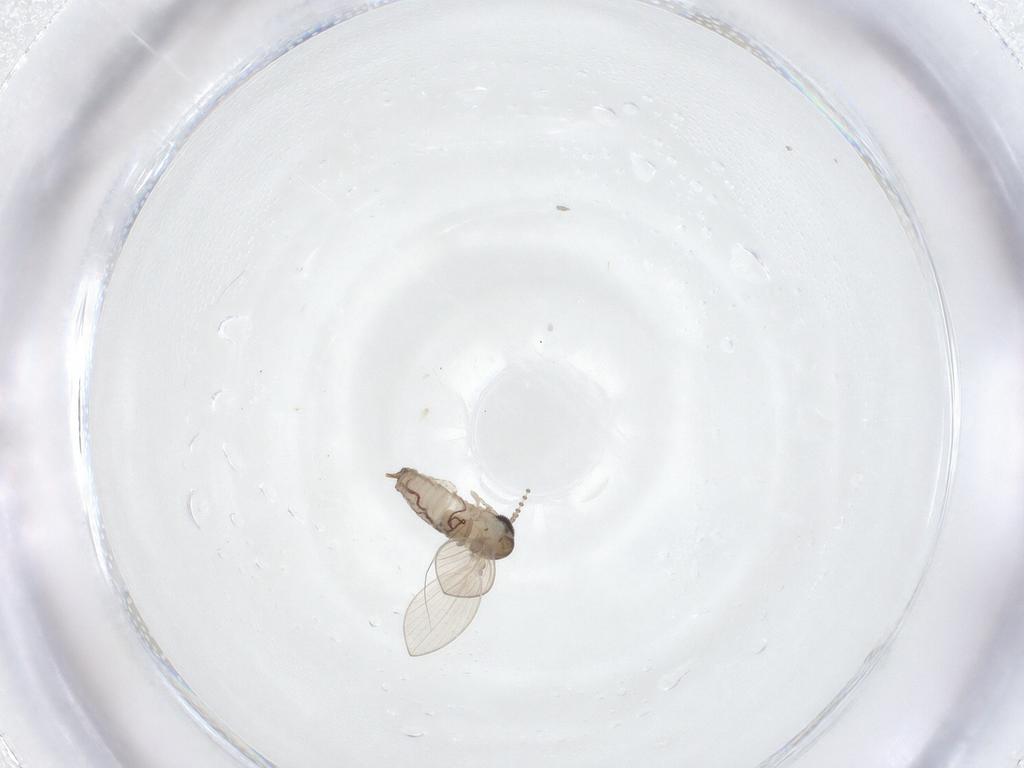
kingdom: Animalia
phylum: Arthropoda
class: Insecta
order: Diptera
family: Psychodidae
